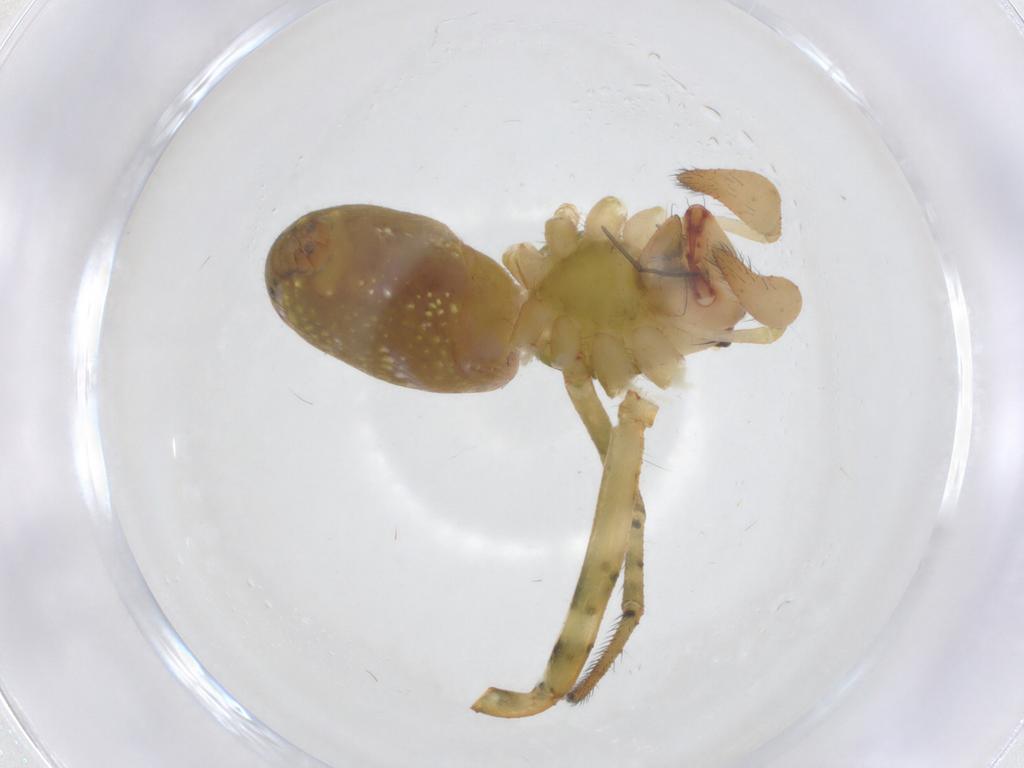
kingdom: Animalia
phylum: Arthropoda
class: Arachnida
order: Araneae
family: Tetragnathidae
